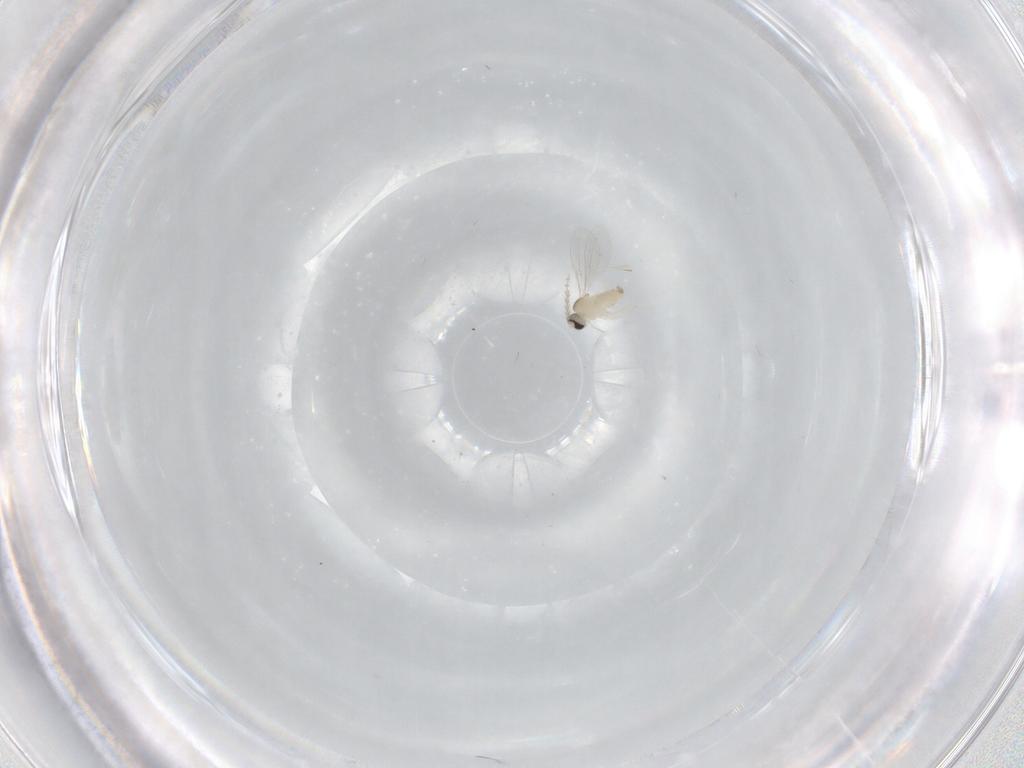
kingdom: Animalia
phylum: Arthropoda
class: Insecta
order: Diptera
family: Cecidomyiidae
